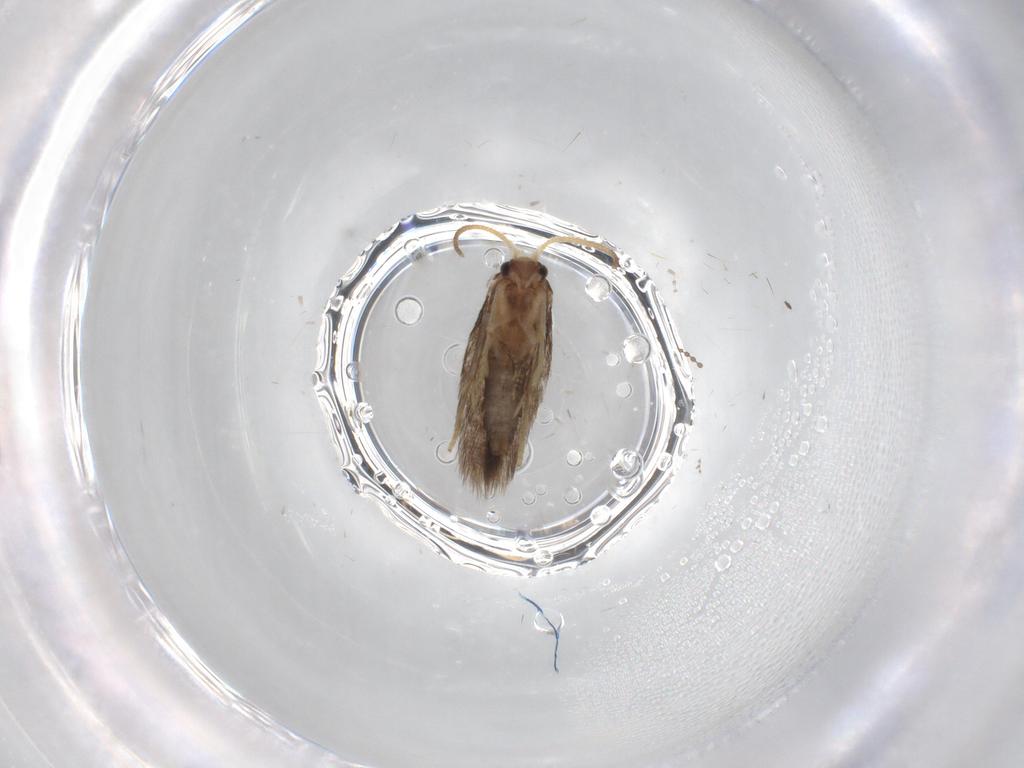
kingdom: Animalia
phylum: Arthropoda
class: Insecta
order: Lepidoptera
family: Nepticulidae
